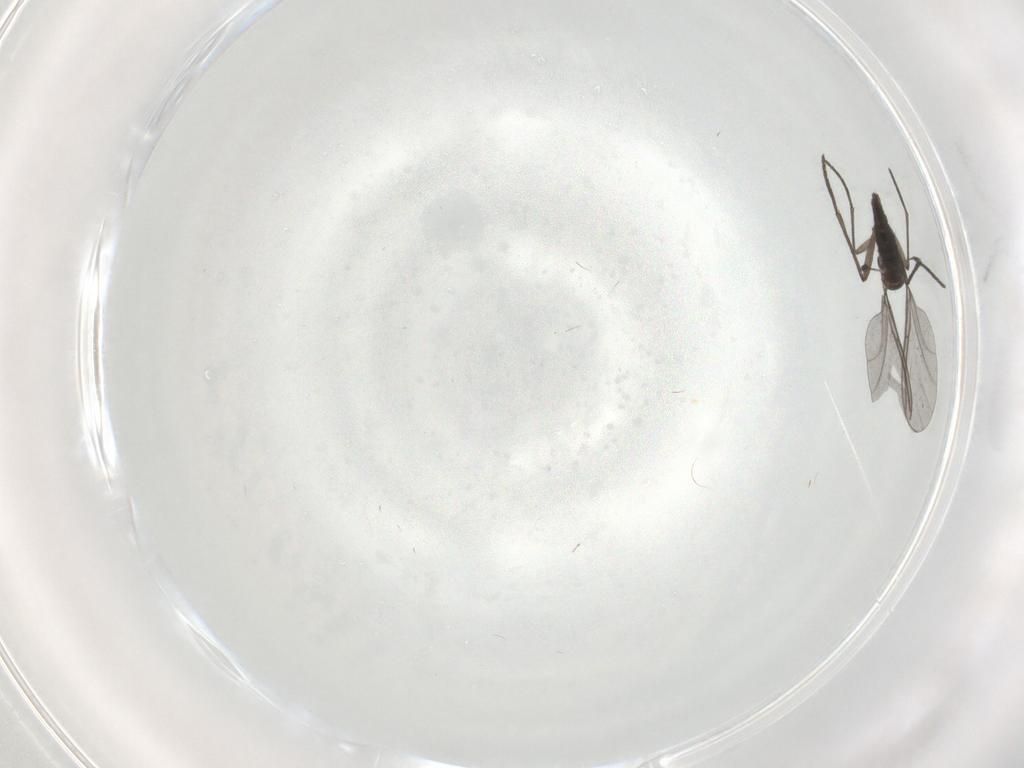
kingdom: Animalia
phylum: Arthropoda
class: Insecta
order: Diptera
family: Chironomidae
